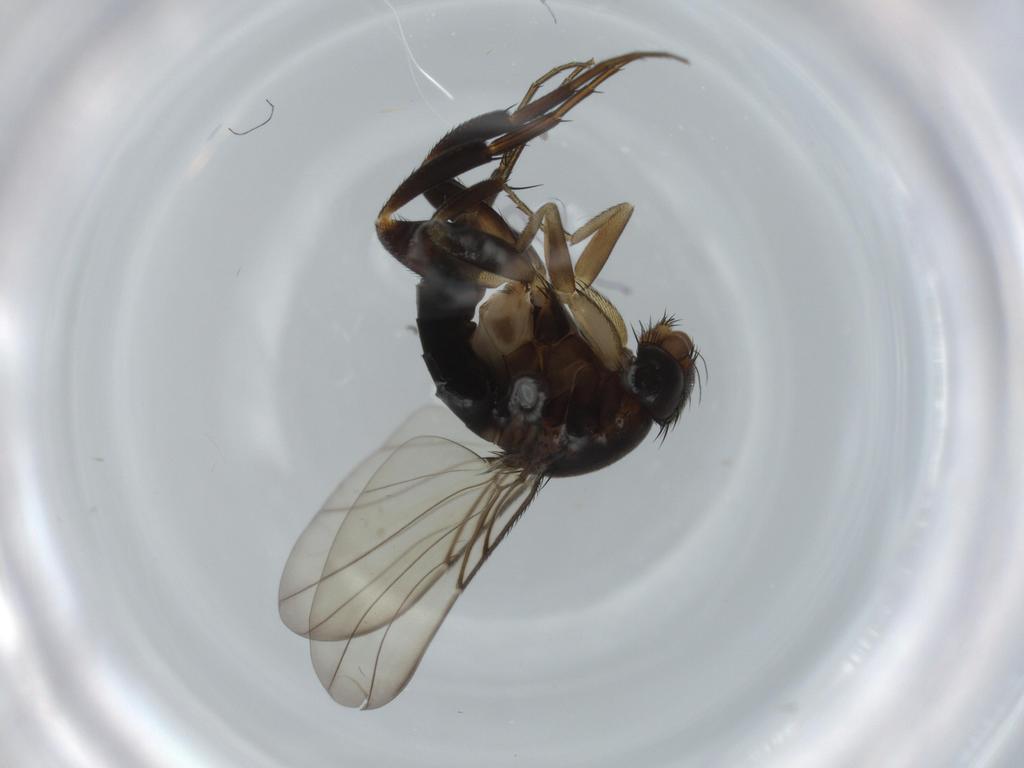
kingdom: Animalia
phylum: Arthropoda
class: Insecta
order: Diptera
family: Phoridae
